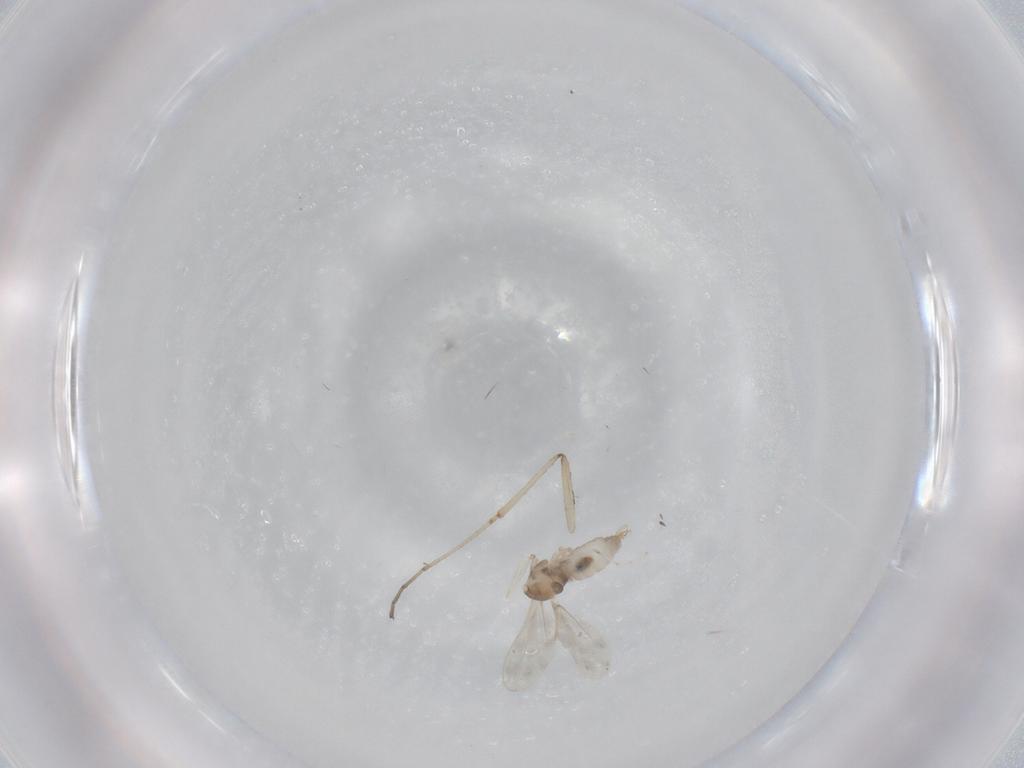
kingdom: Animalia
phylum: Arthropoda
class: Insecta
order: Diptera
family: Cecidomyiidae
